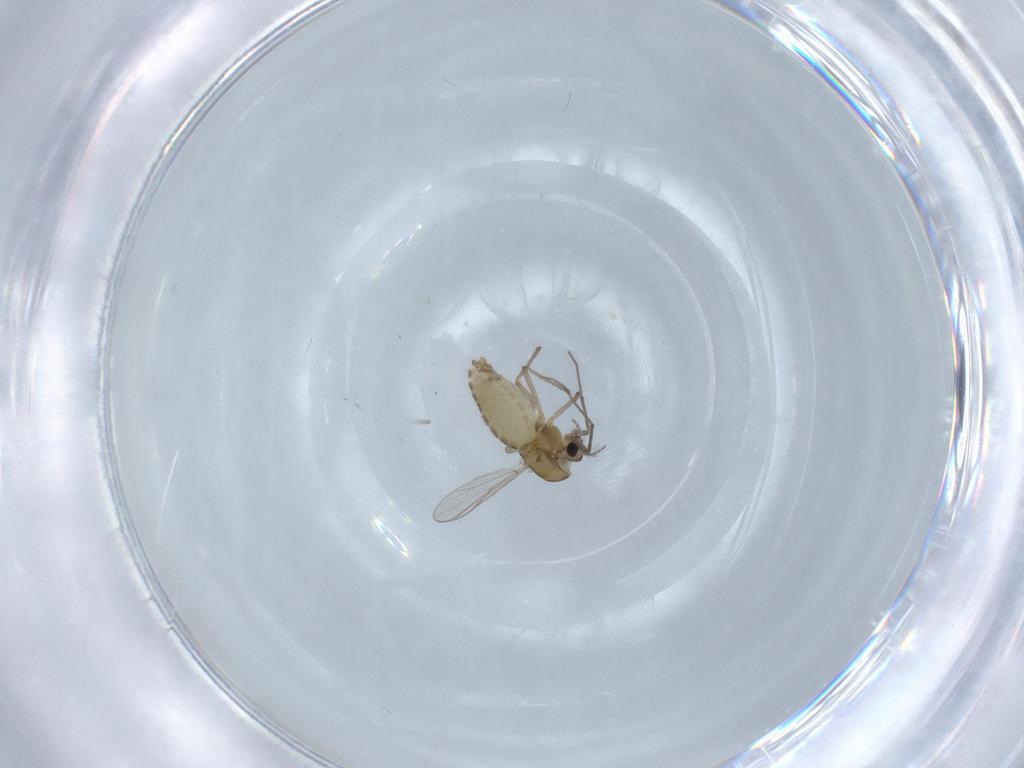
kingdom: Animalia
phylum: Arthropoda
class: Insecta
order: Diptera
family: Chironomidae
